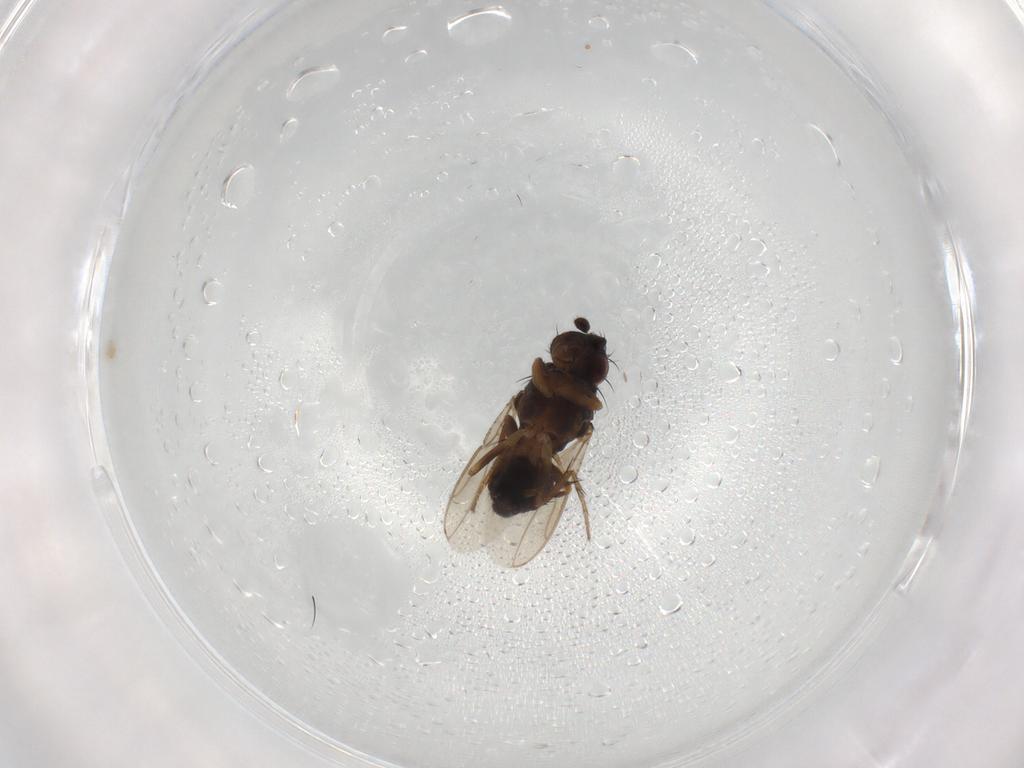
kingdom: Animalia
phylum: Arthropoda
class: Insecta
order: Diptera
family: Sphaeroceridae
